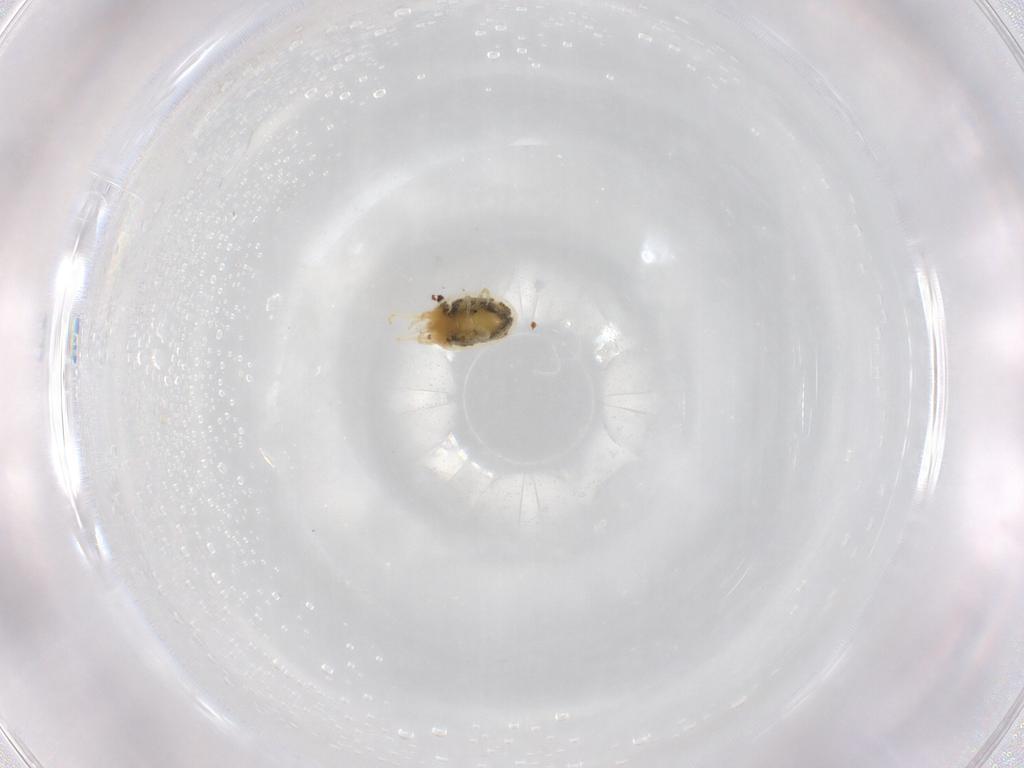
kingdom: Animalia
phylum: Arthropoda
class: Arachnida
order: Trombidiformes
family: Tetranychidae
